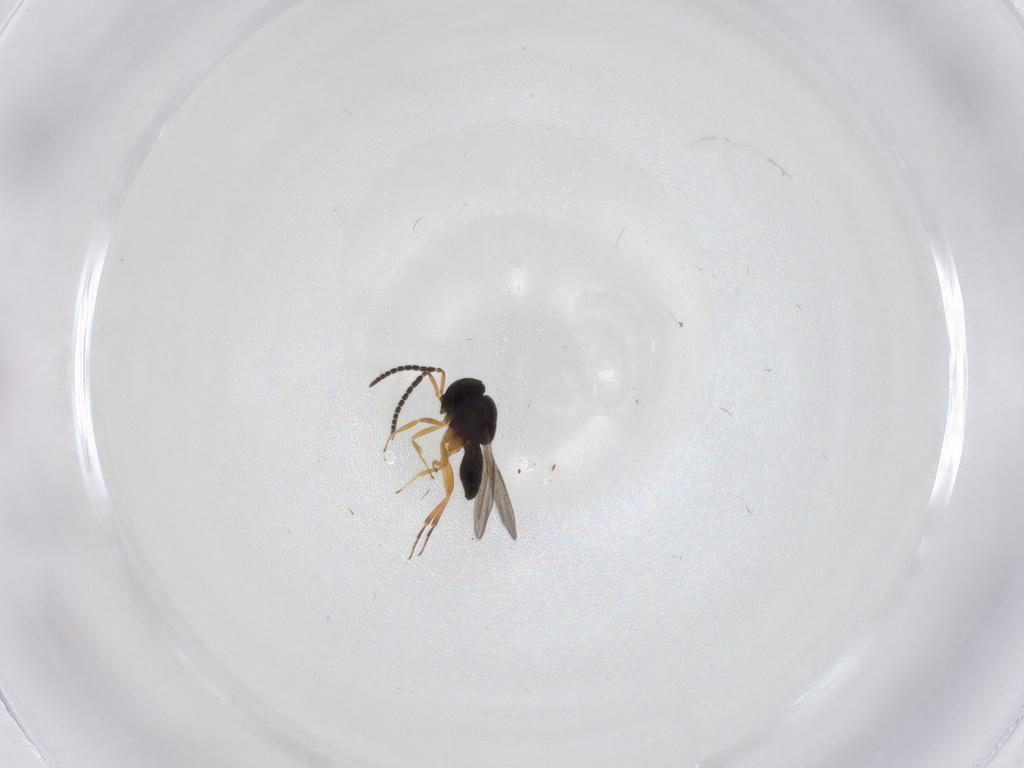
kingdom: Animalia
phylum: Arthropoda
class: Insecta
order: Hymenoptera
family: Scelionidae
